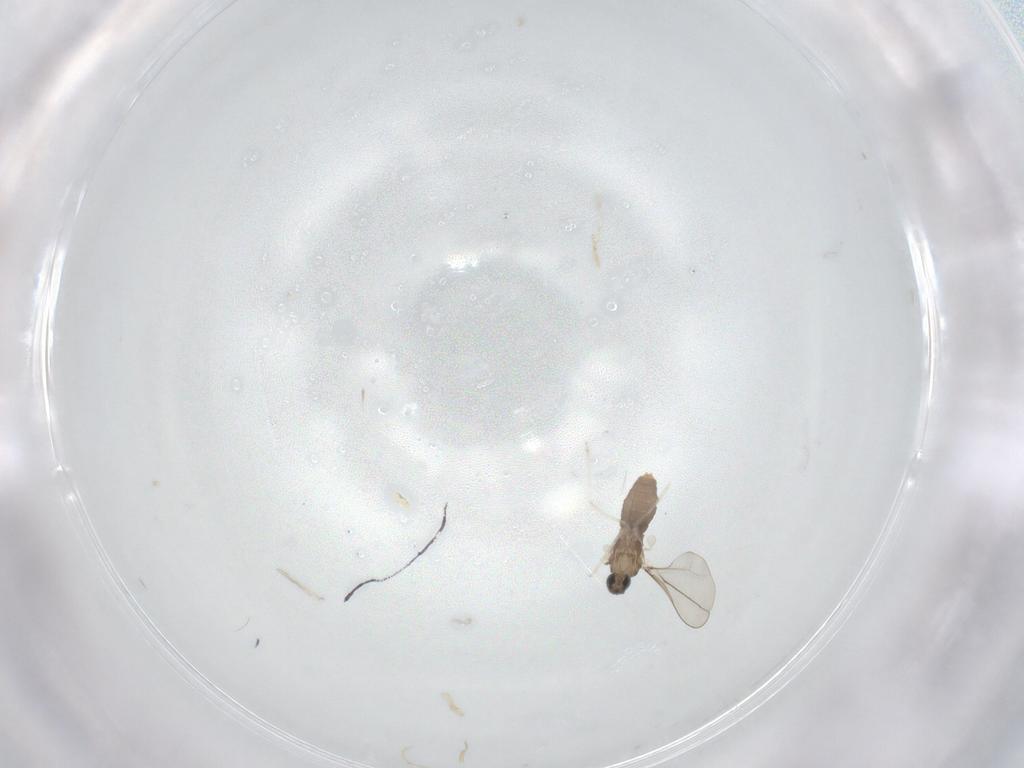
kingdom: Animalia
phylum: Arthropoda
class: Insecta
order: Diptera
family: Cecidomyiidae
